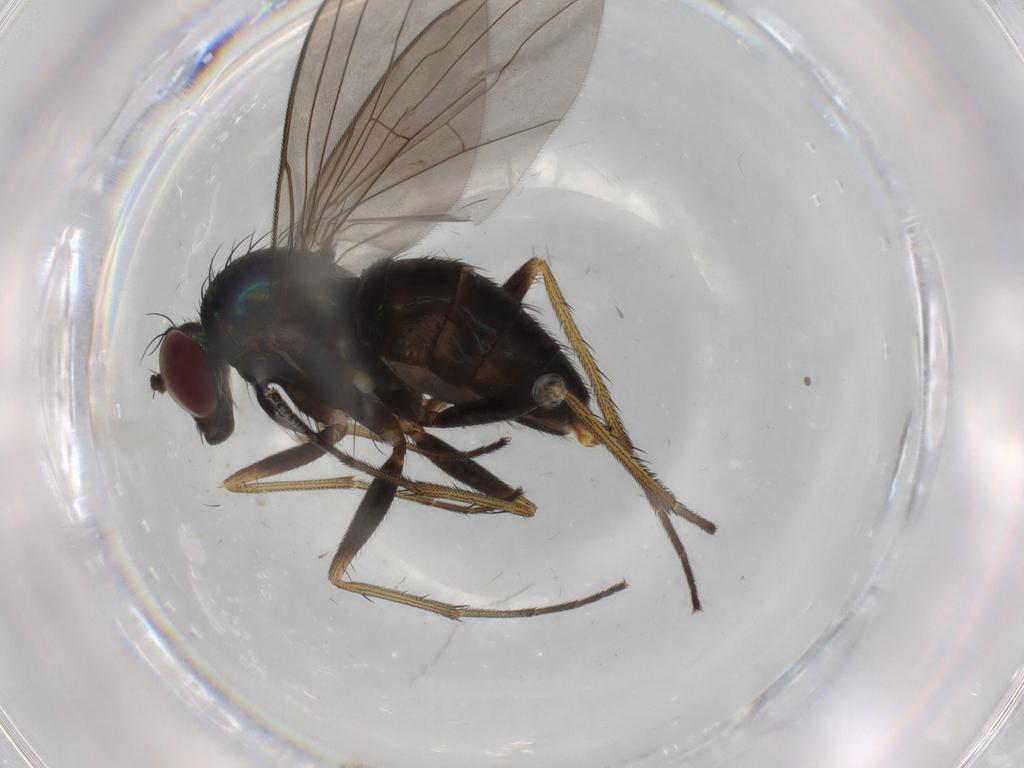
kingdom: Animalia
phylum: Arthropoda
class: Insecta
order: Diptera
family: Dolichopodidae
